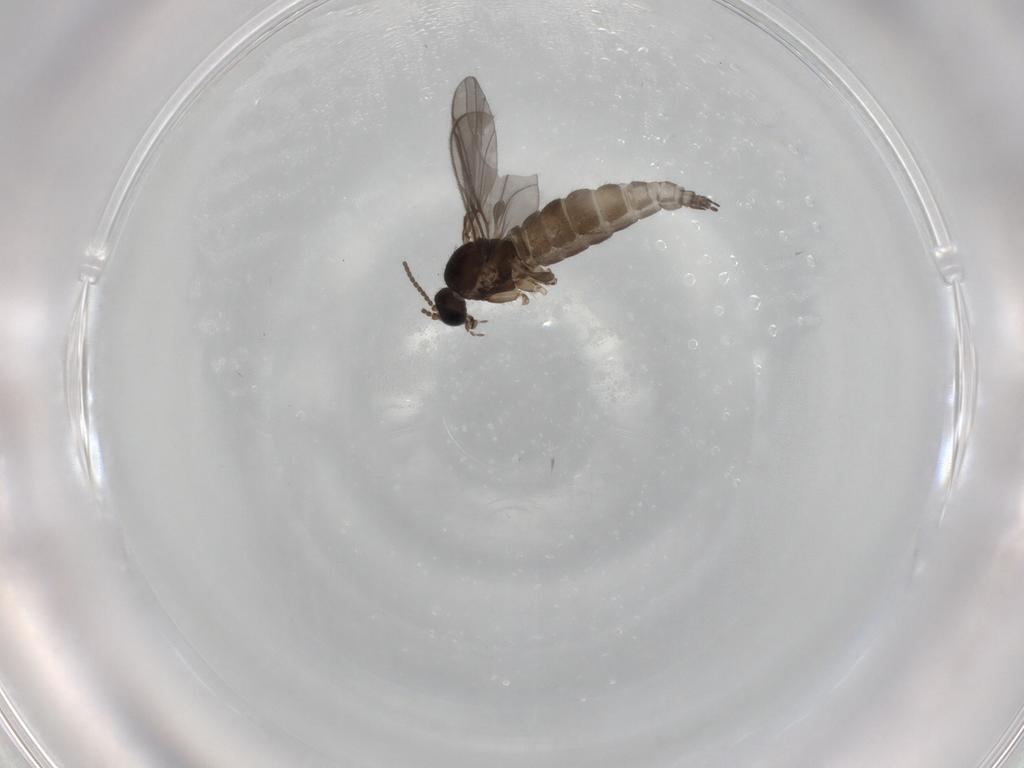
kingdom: Animalia
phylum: Arthropoda
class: Insecta
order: Diptera
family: Sciaridae
